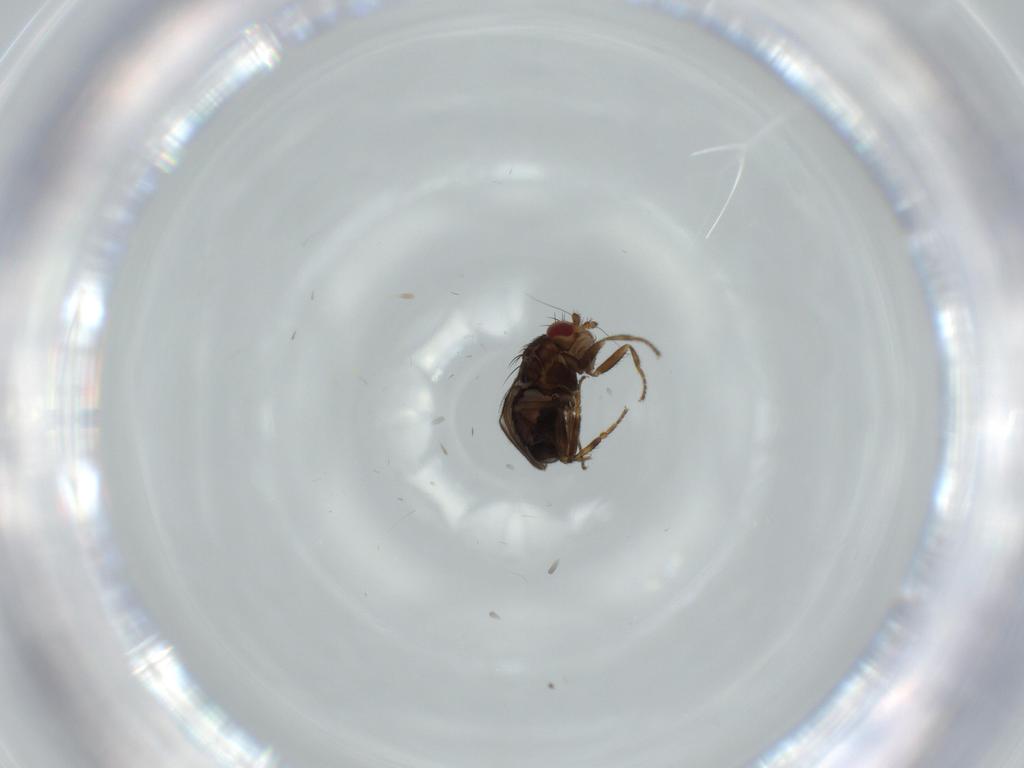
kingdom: Animalia
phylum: Arthropoda
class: Insecta
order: Diptera
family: Sphaeroceridae
